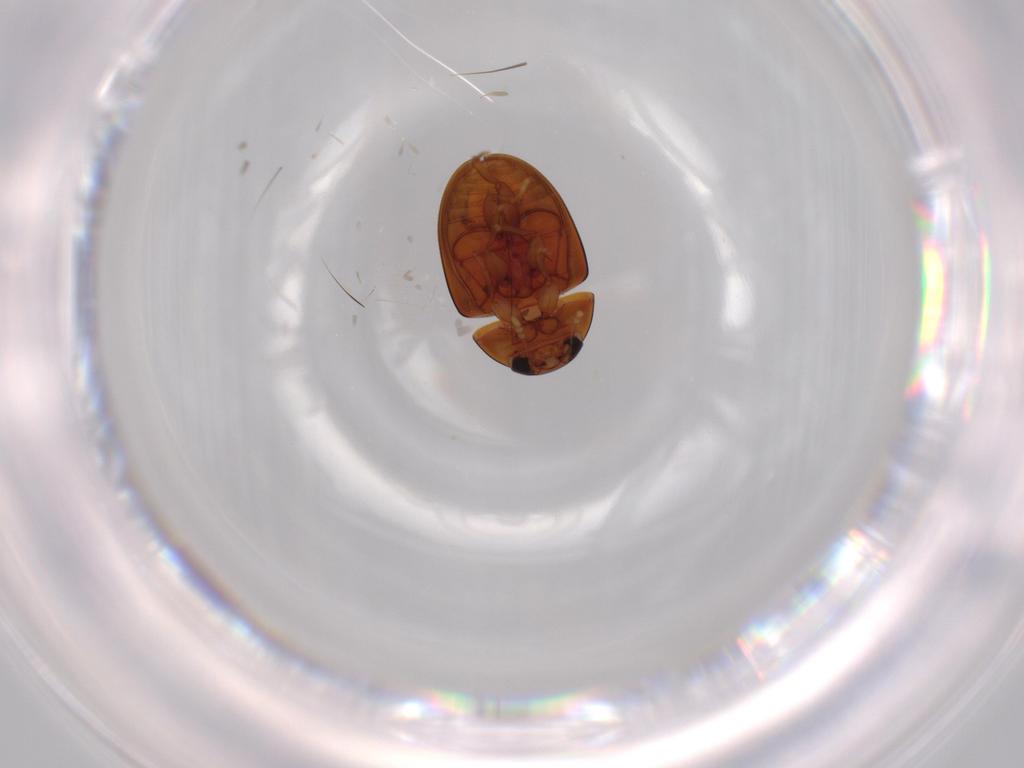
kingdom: Animalia
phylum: Arthropoda
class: Insecta
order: Coleoptera
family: Phalacridae
